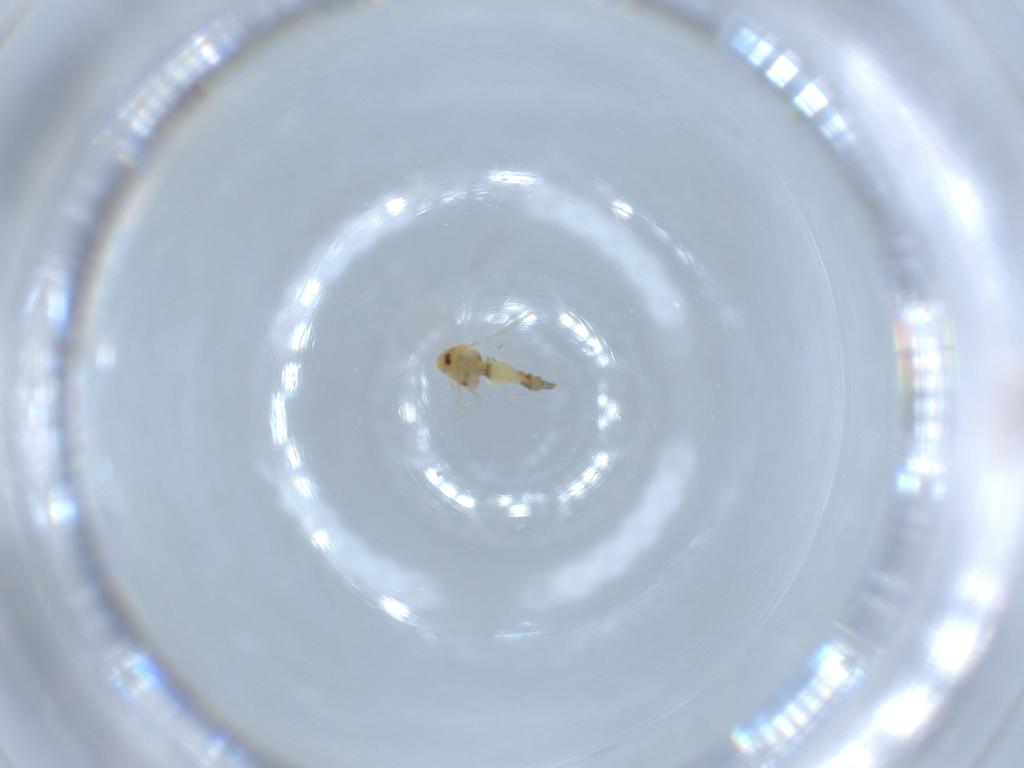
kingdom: Animalia
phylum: Arthropoda
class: Insecta
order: Hemiptera
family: Aleyrodidae
